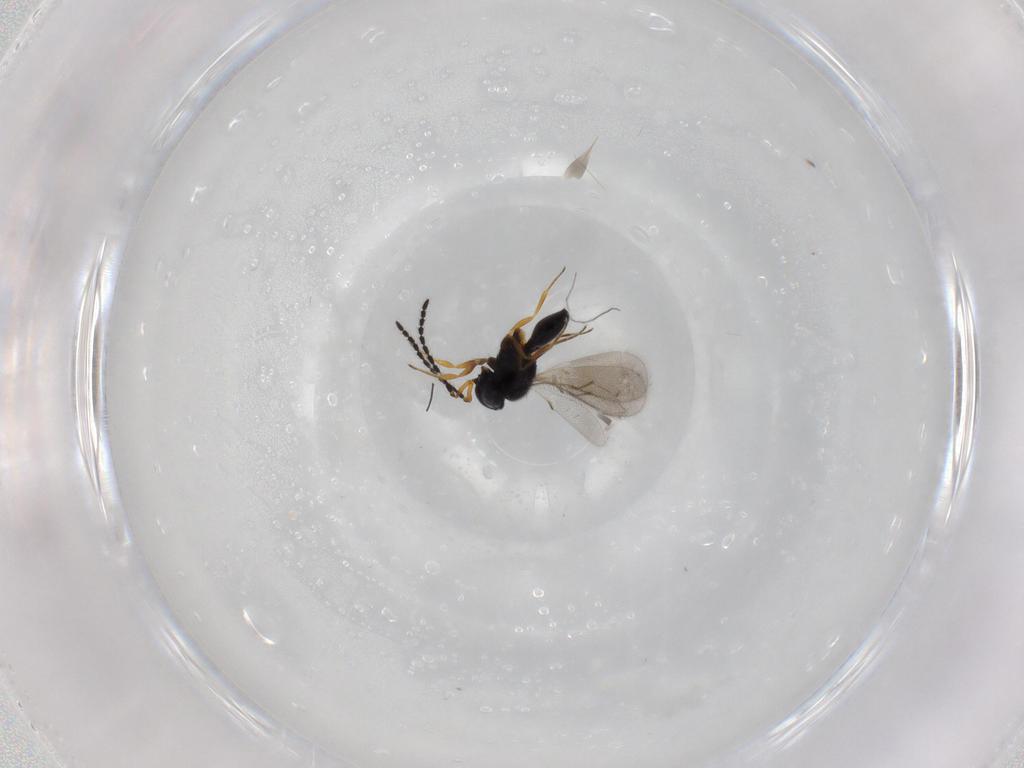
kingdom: Animalia
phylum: Arthropoda
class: Insecta
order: Hymenoptera
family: Scelionidae
